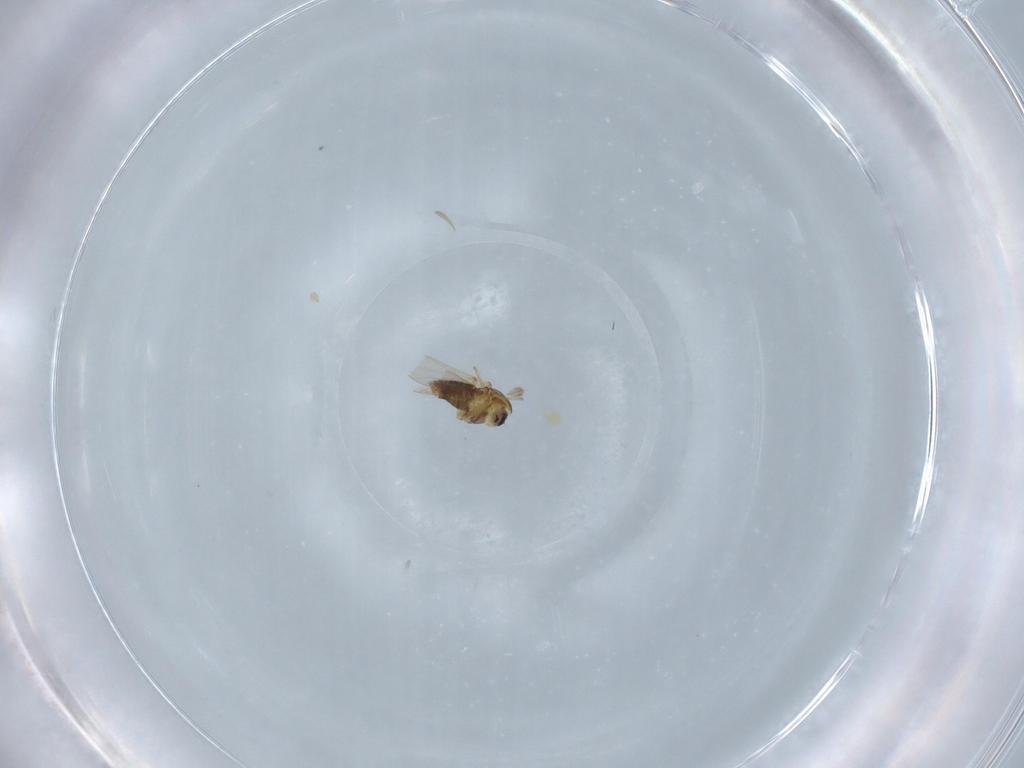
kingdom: Animalia
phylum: Arthropoda
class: Insecta
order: Diptera
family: Chironomidae
